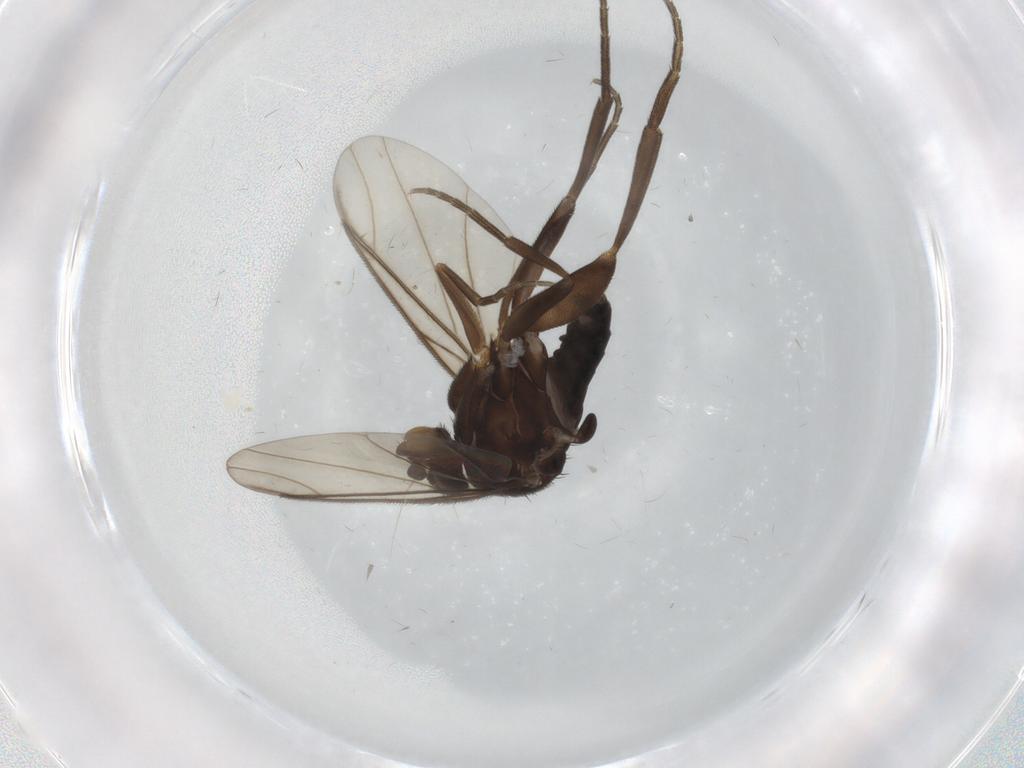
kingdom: Animalia
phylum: Arthropoda
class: Insecta
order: Diptera
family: Phoridae
